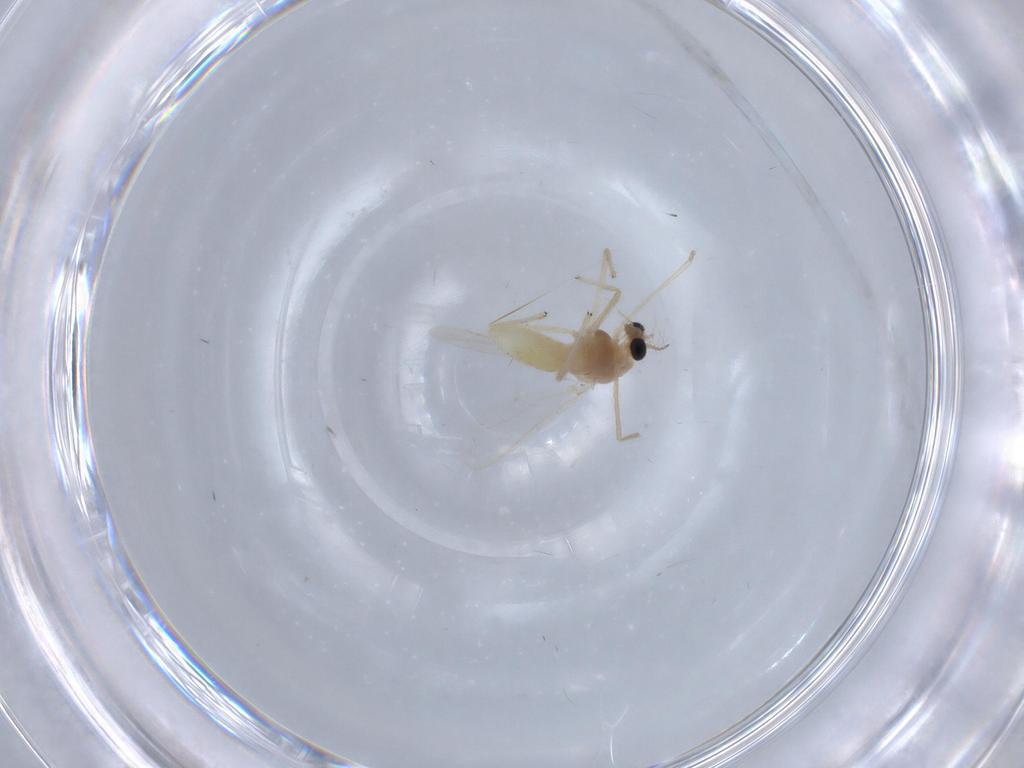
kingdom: Animalia
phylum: Arthropoda
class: Insecta
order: Diptera
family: Chironomidae
